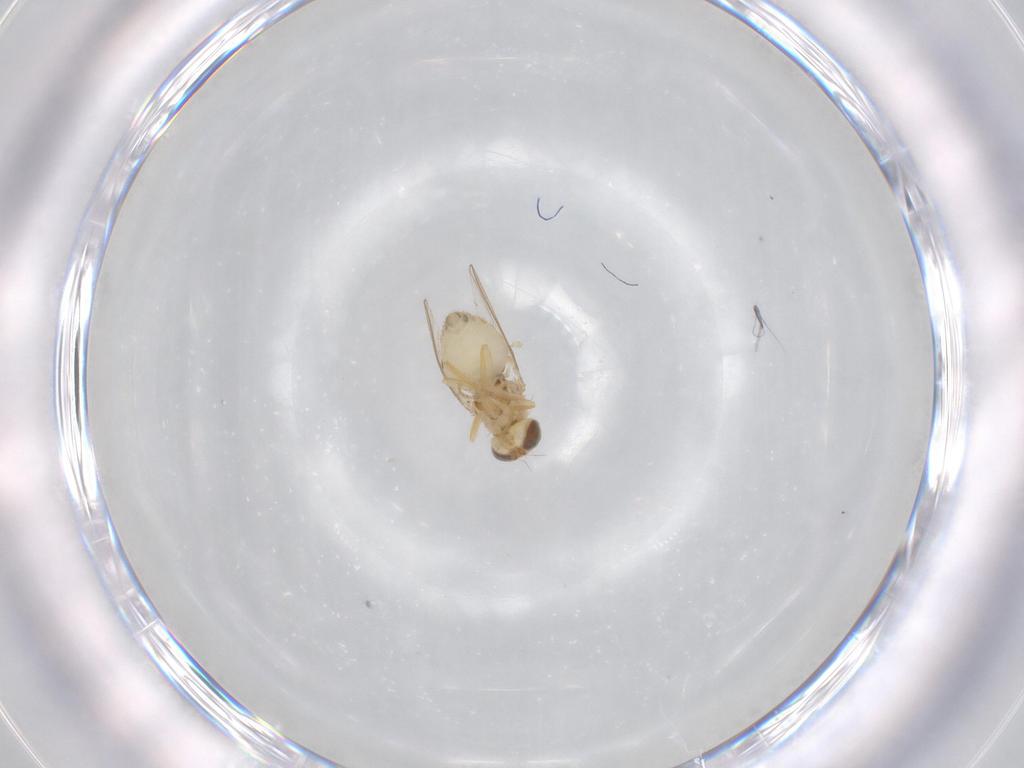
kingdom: Animalia
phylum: Arthropoda
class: Insecta
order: Diptera
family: Chyromyidae
